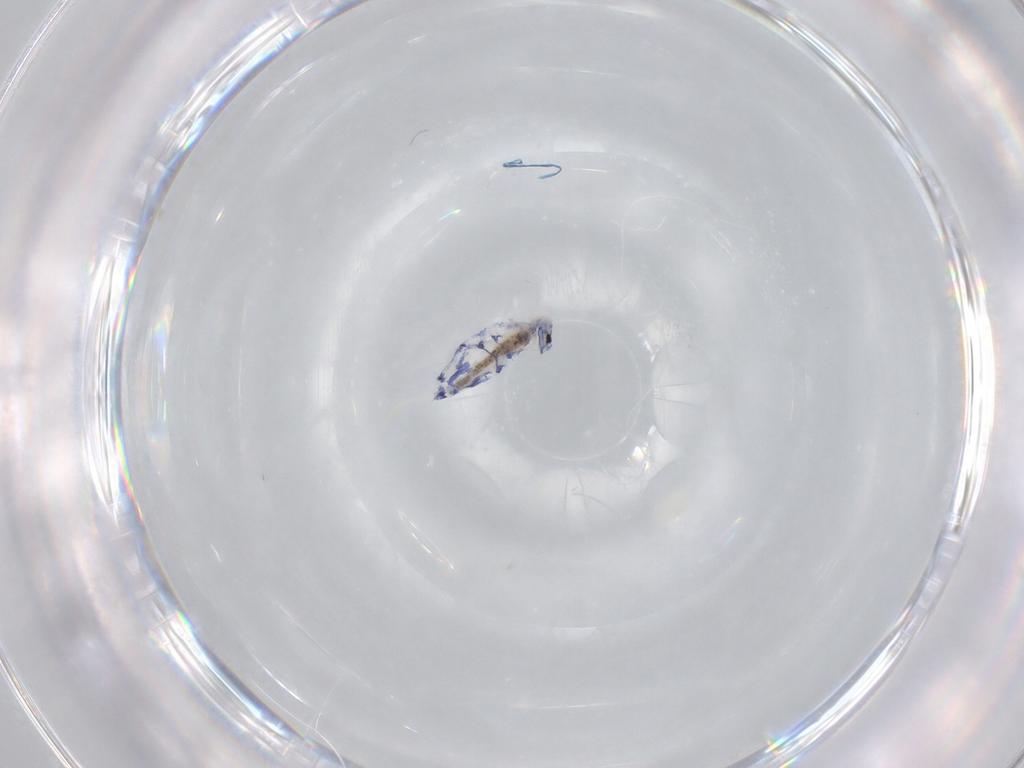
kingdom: Animalia
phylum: Arthropoda
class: Collembola
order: Entomobryomorpha
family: Entomobryidae
